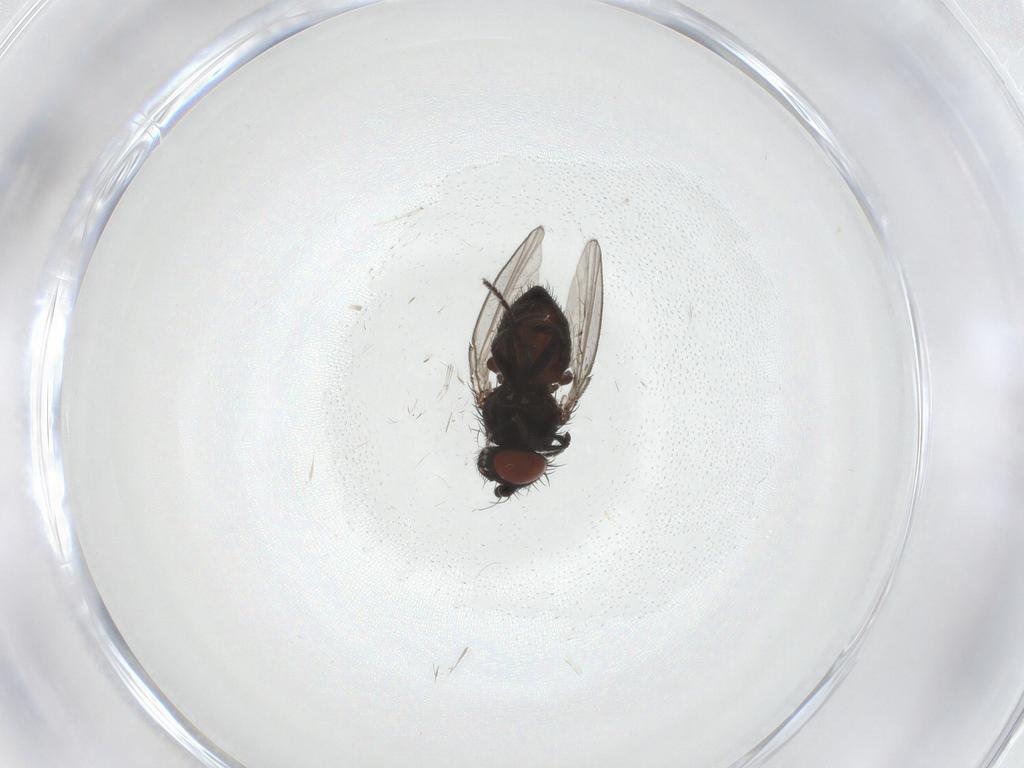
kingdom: Animalia
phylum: Arthropoda
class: Insecta
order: Diptera
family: Milichiidae
